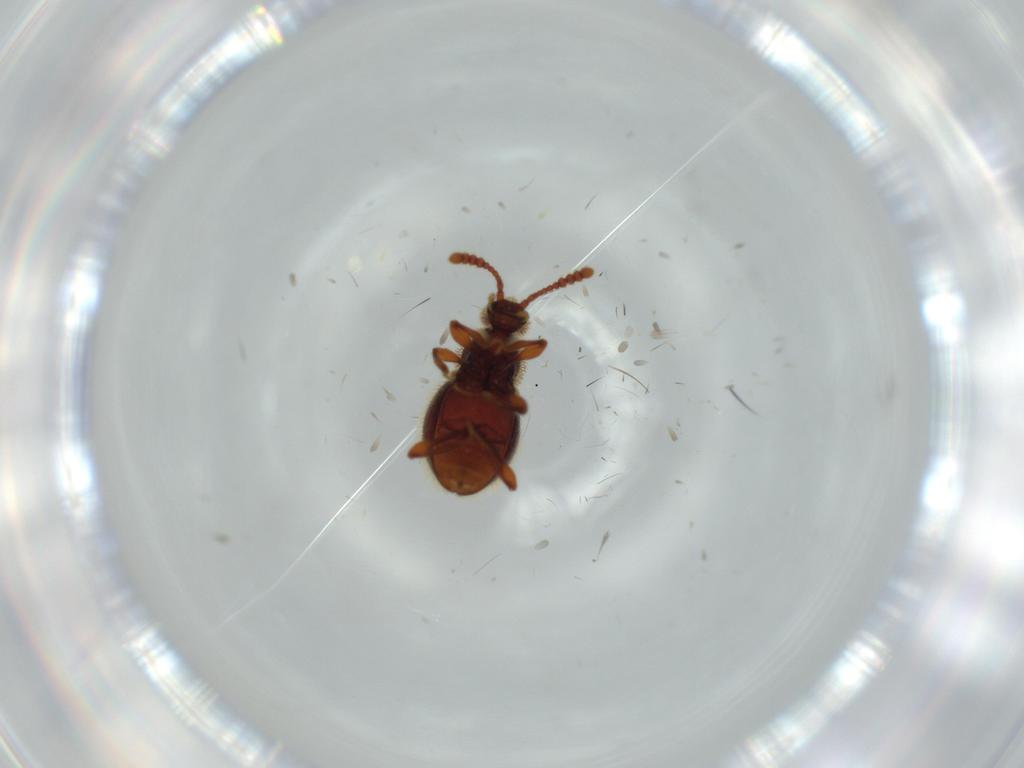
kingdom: Animalia
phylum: Arthropoda
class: Insecta
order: Coleoptera
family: Curculionidae
